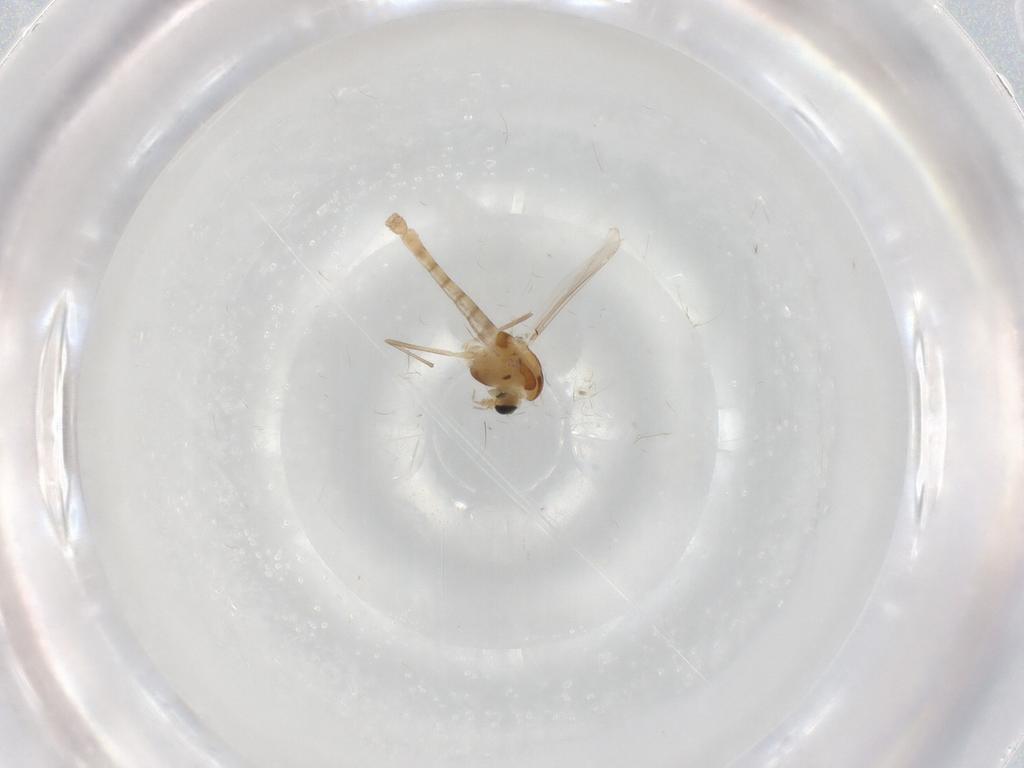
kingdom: Animalia
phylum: Arthropoda
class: Insecta
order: Diptera
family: Chironomidae
